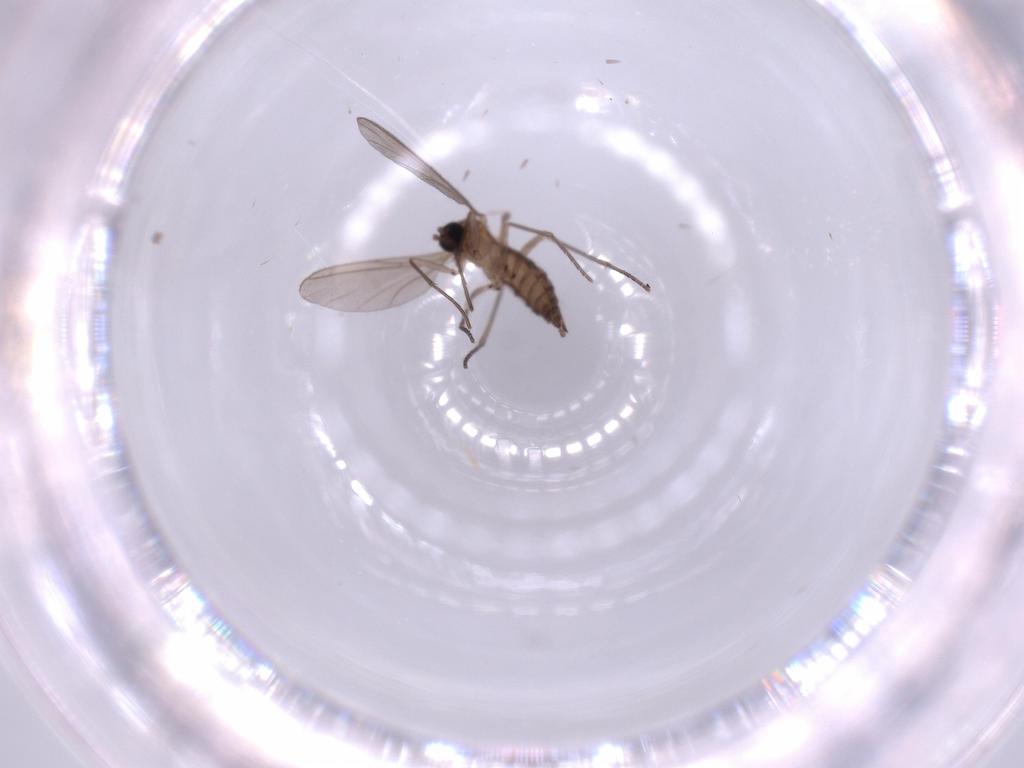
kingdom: Animalia
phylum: Arthropoda
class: Insecta
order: Diptera
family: Sciaridae
